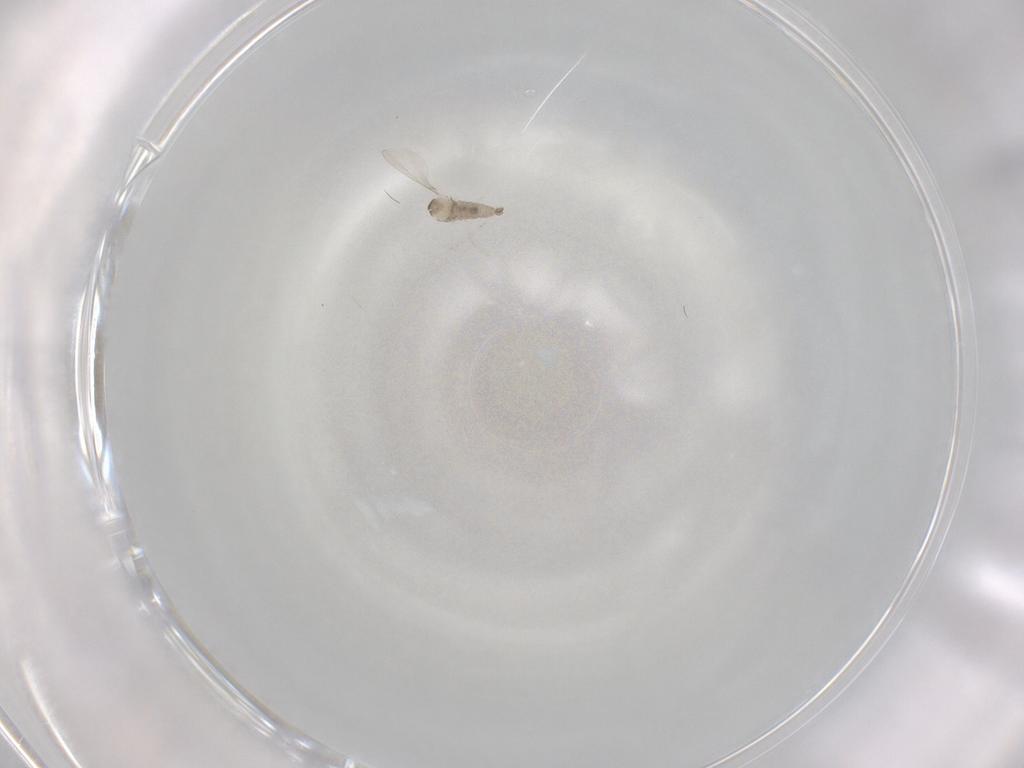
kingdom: Animalia
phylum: Arthropoda
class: Insecta
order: Diptera
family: Cecidomyiidae
